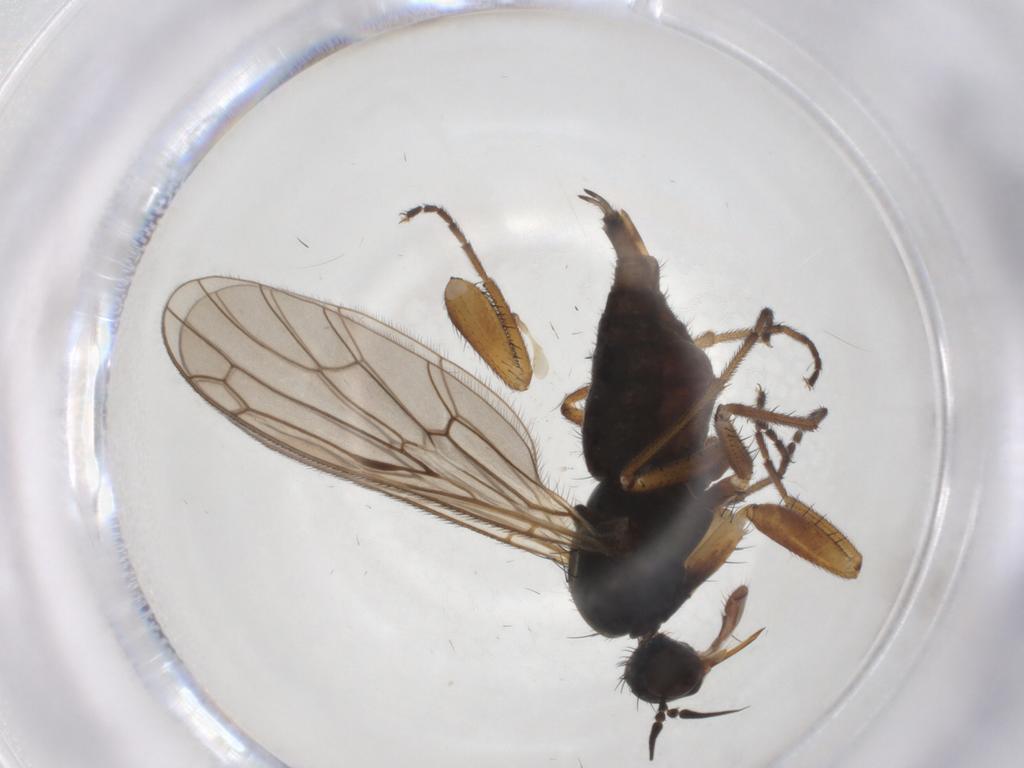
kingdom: Animalia
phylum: Arthropoda
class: Insecta
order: Diptera
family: Empididae
